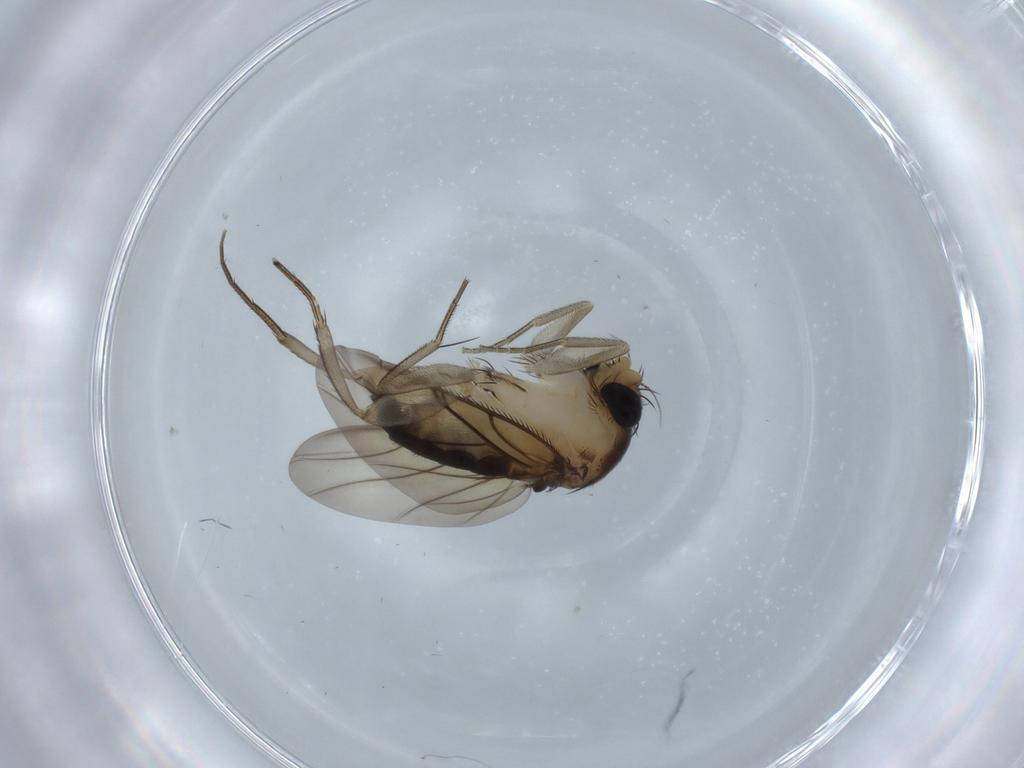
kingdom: Animalia
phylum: Arthropoda
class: Insecta
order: Diptera
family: Phoridae
